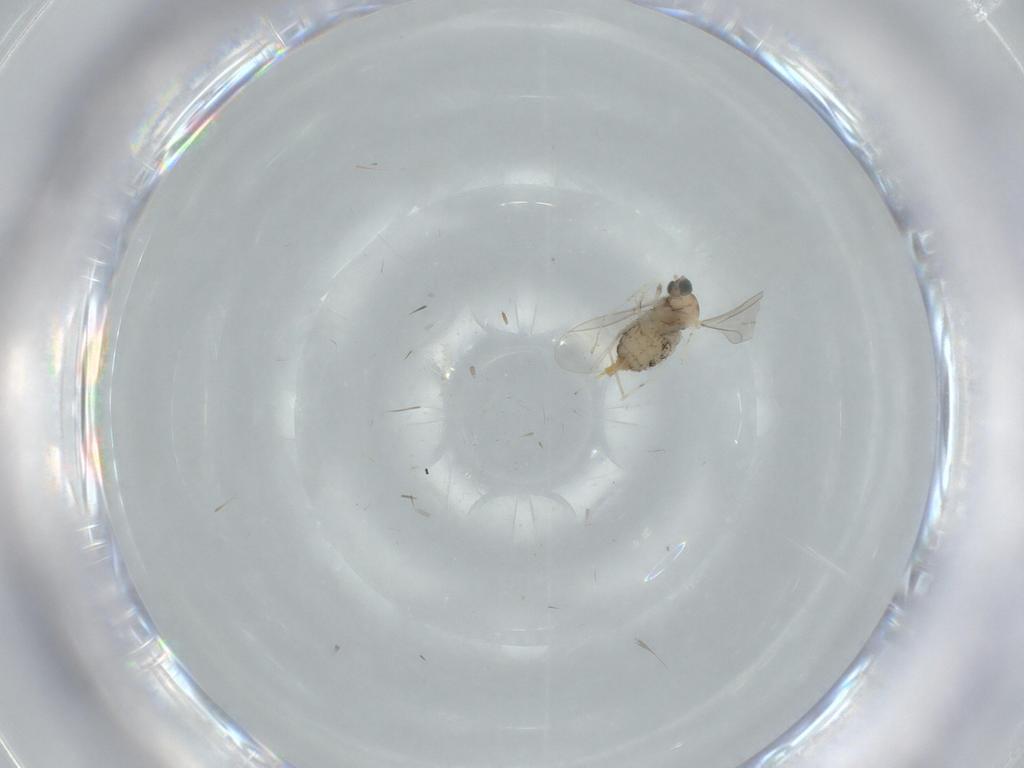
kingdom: Animalia
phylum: Arthropoda
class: Insecta
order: Diptera
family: Cecidomyiidae
